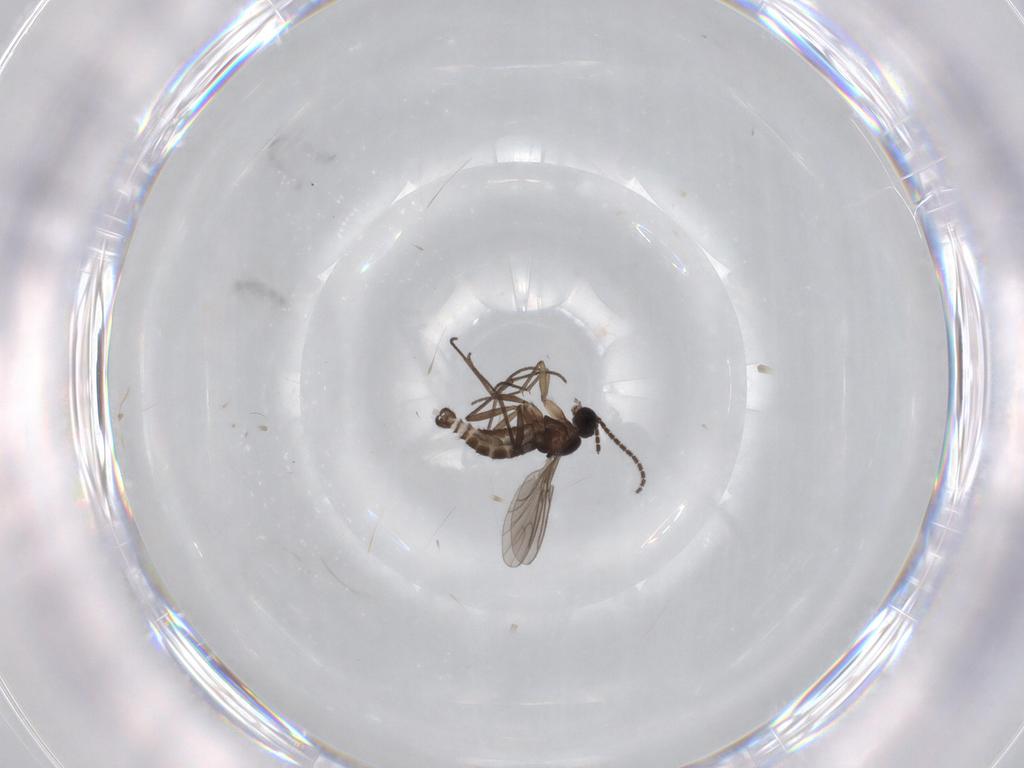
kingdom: Animalia
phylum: Arthropoda
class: Insecta
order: Diptera
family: Sciaridae
